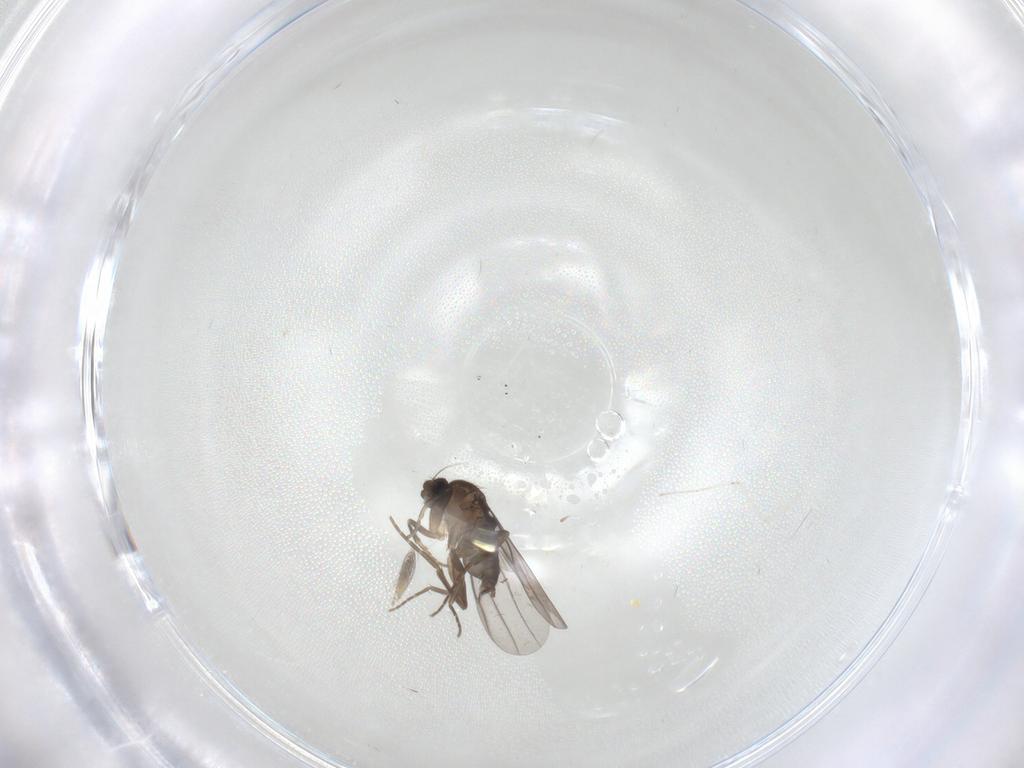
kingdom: Animalia
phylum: Arthropoda
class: Insecta
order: Diptera
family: Ceratopogonidae
